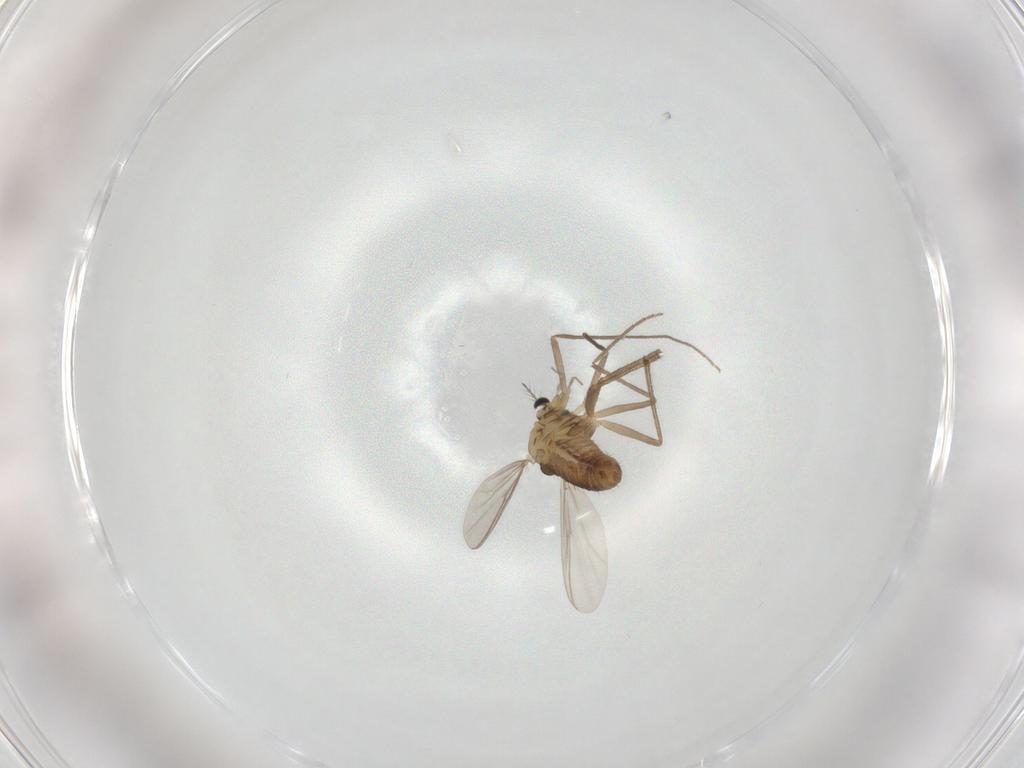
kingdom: Animalia
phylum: Arthropoda
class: Insecta
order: Diptera
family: Chironomidae
